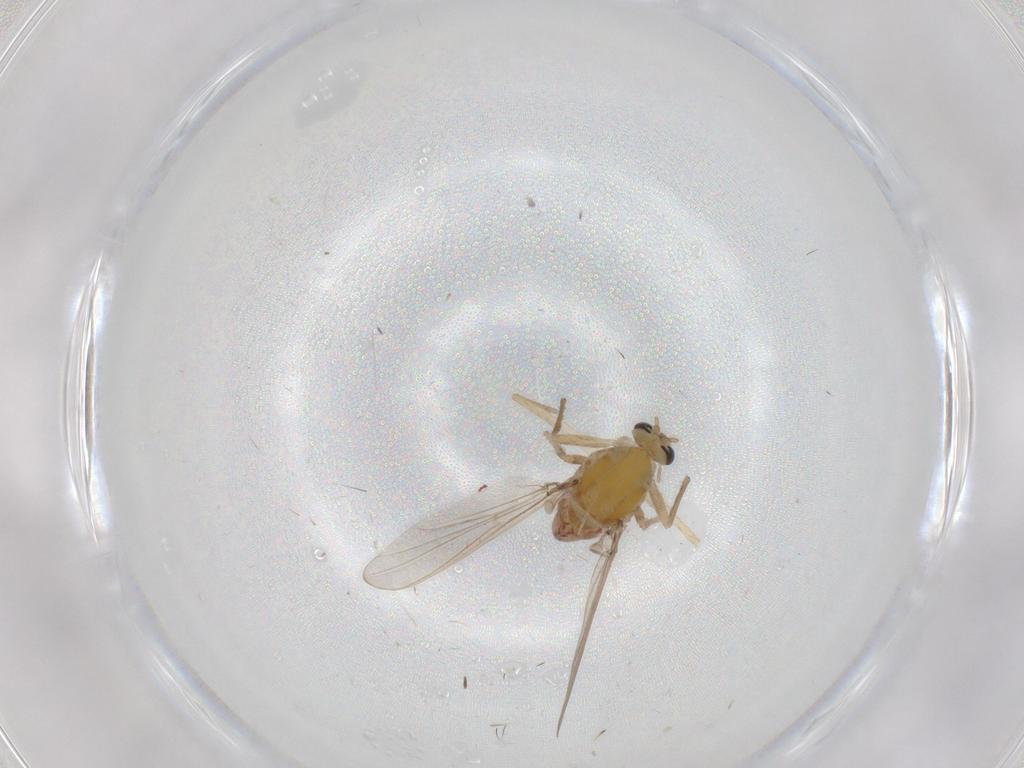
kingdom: Animalia
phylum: Arthropoda
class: Insecta
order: Diptera
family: Chironomidae
